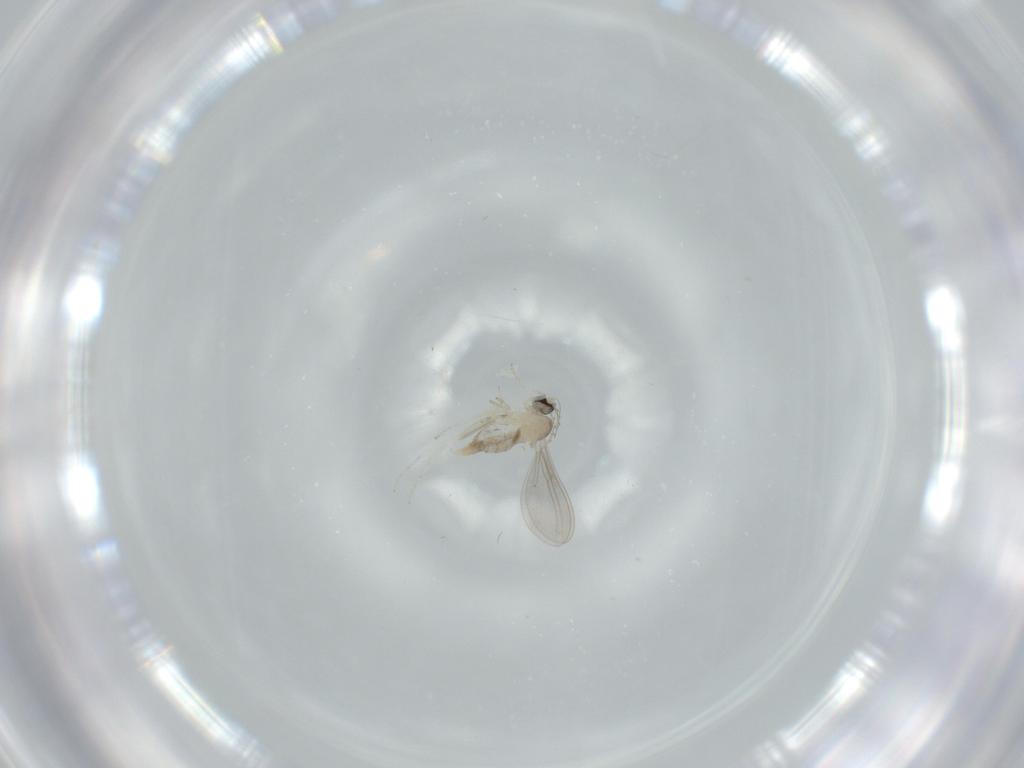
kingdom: Animalia
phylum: Arthropoda
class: Insecta
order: Diptera
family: Cecidomyiidae
